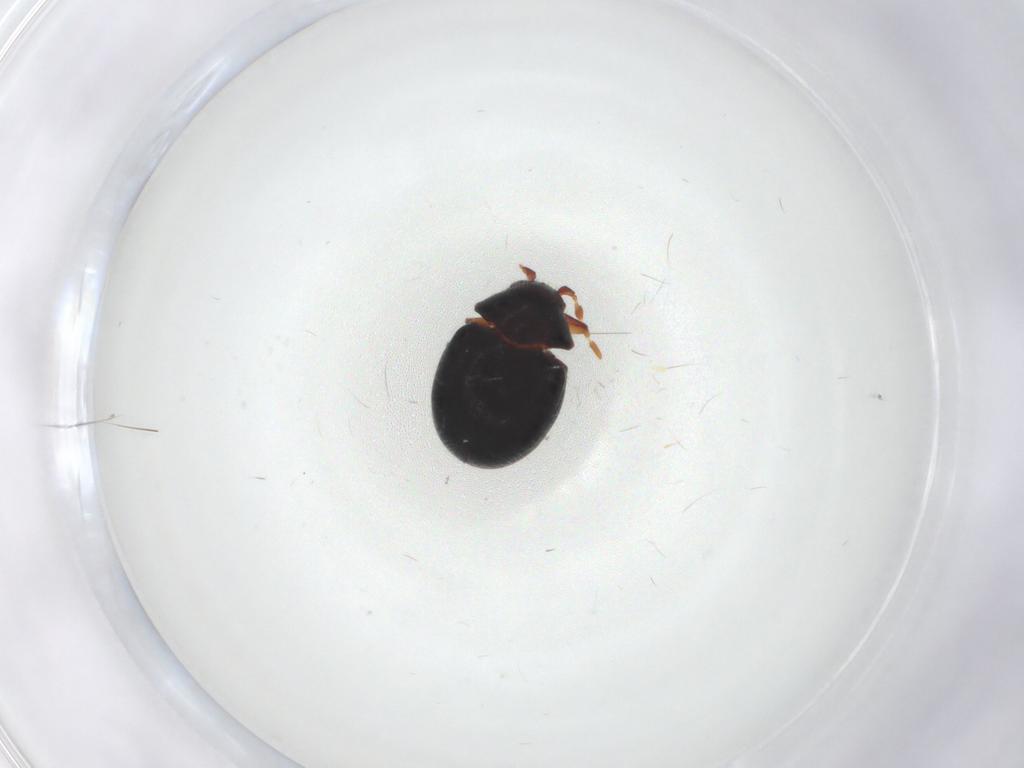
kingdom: Animalia
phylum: Arthropoda
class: Insecta
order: Coleoptera
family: Ptinidae
